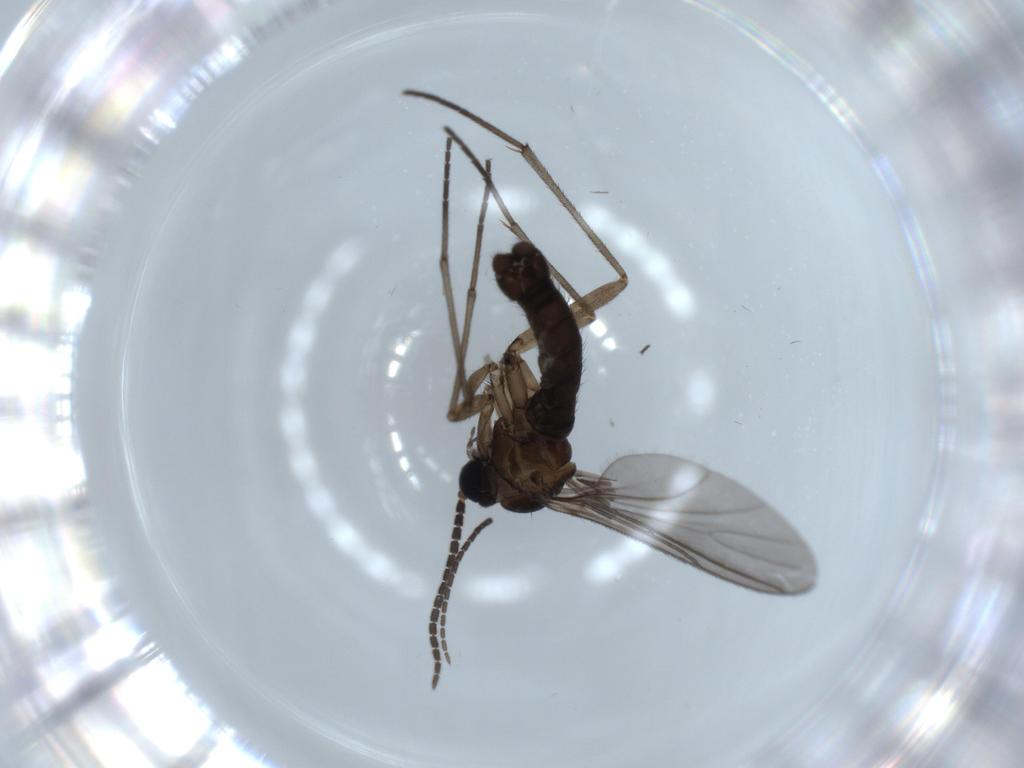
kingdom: Animalia
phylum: Arthropoda
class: Insecta
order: Diptera
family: Sciaridae
